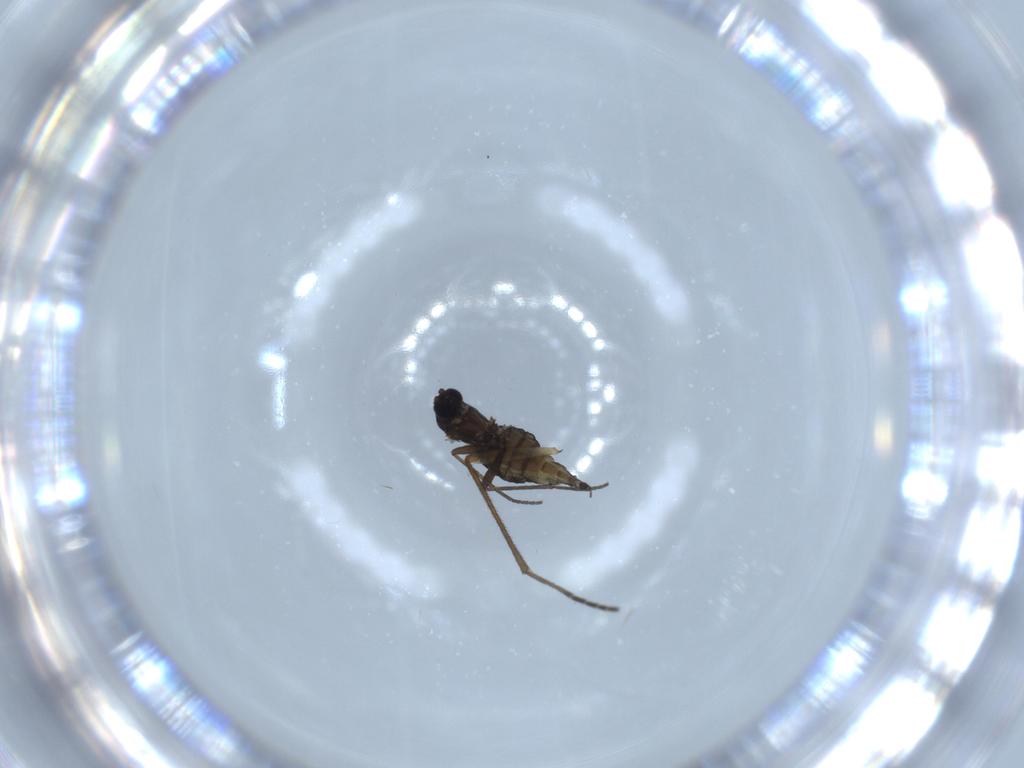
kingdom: Animalia
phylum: Arthropoda
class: Insecta
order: Diptera
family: Sciaridae
